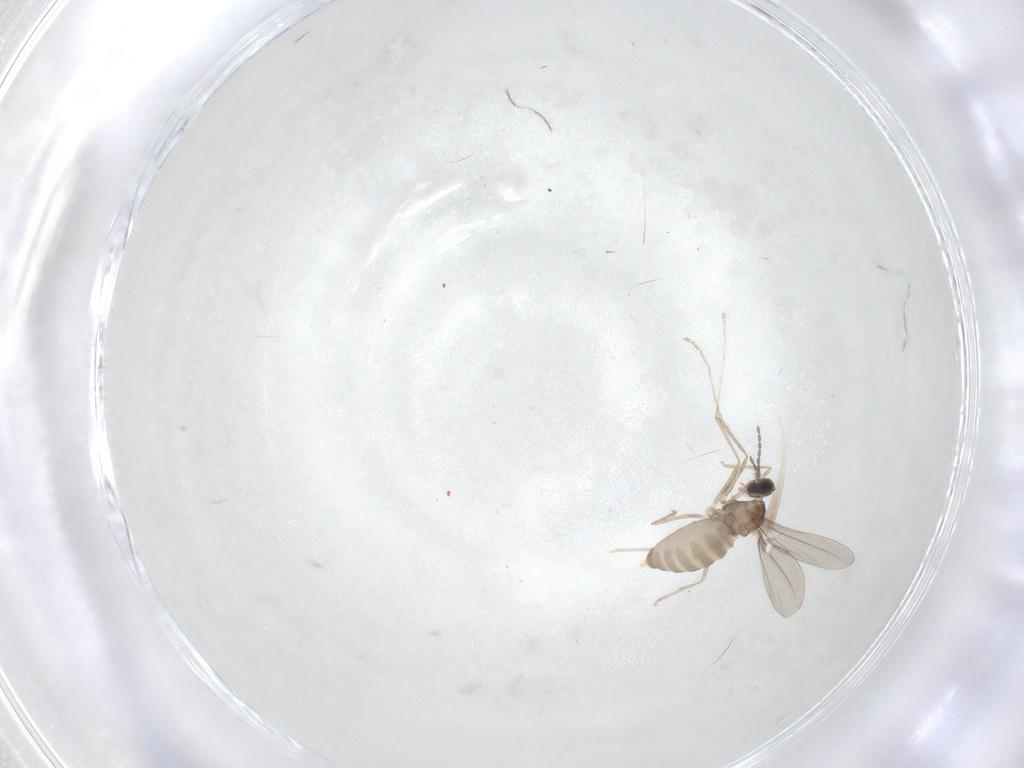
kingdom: Animalia
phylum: Arthropoda
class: Insecta
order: Diptera
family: Cecidomyiidae
